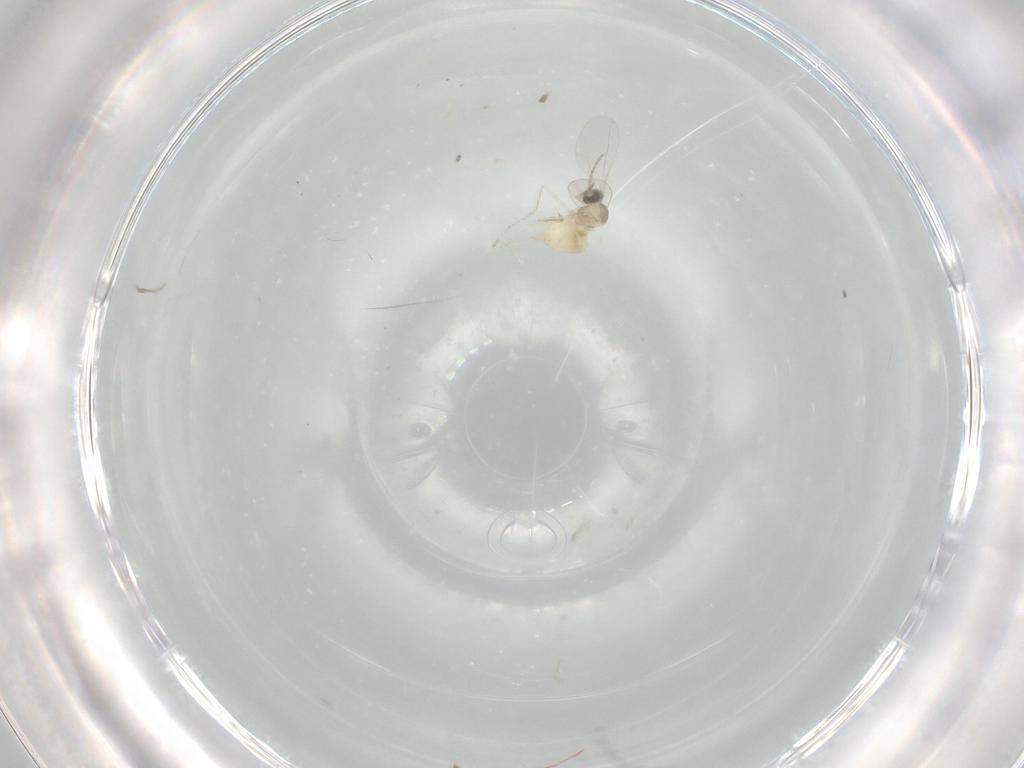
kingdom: Animalia
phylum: Arthropoda
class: Insecta
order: Diptera
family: Cecidomyiidae
